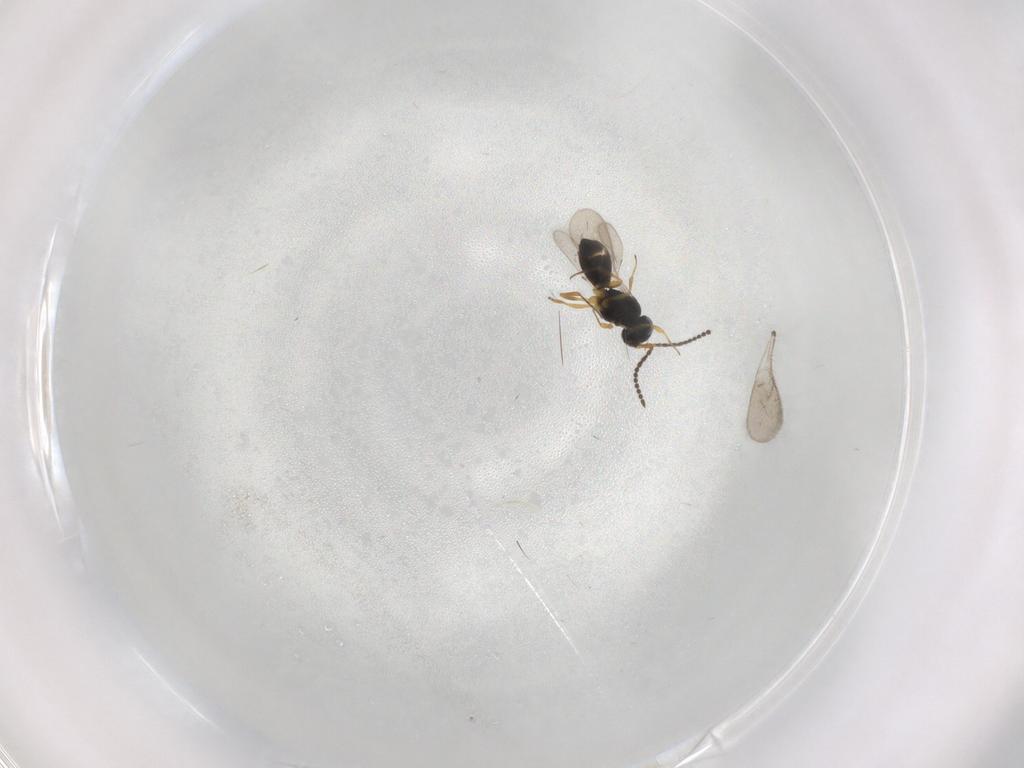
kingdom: Animalia
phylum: Arthropoda
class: Insecta
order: Hymenoptera
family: Scelionidae
